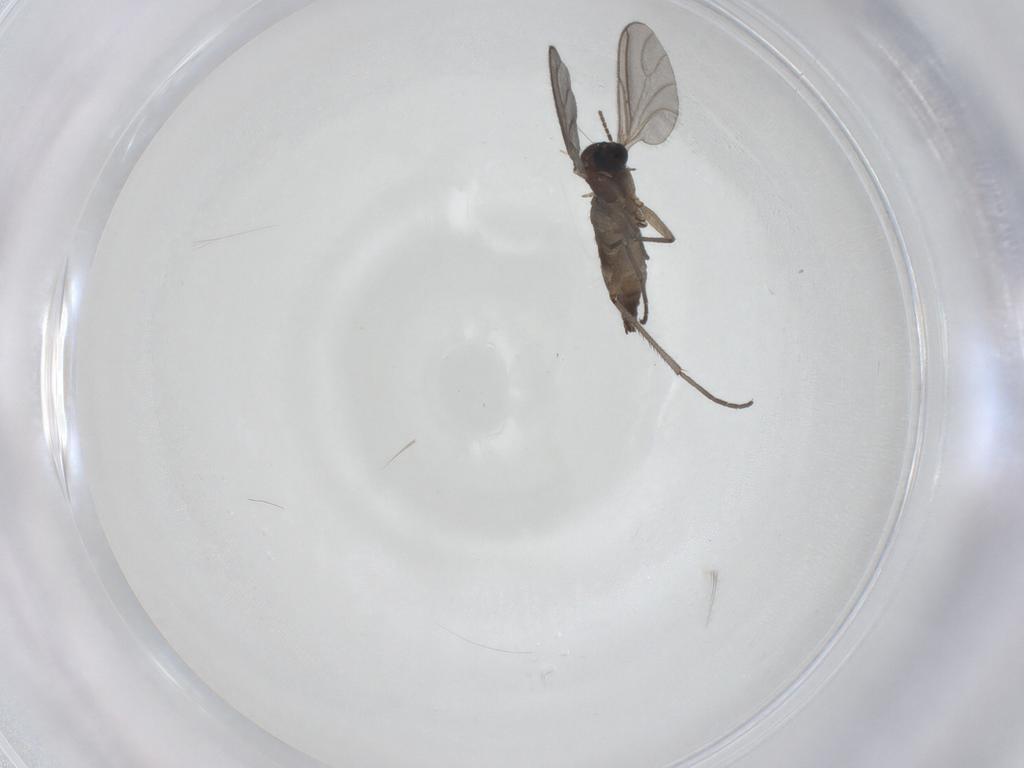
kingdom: Animalia
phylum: Arthropoda
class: Insecta
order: Diptera
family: Sciaridae
